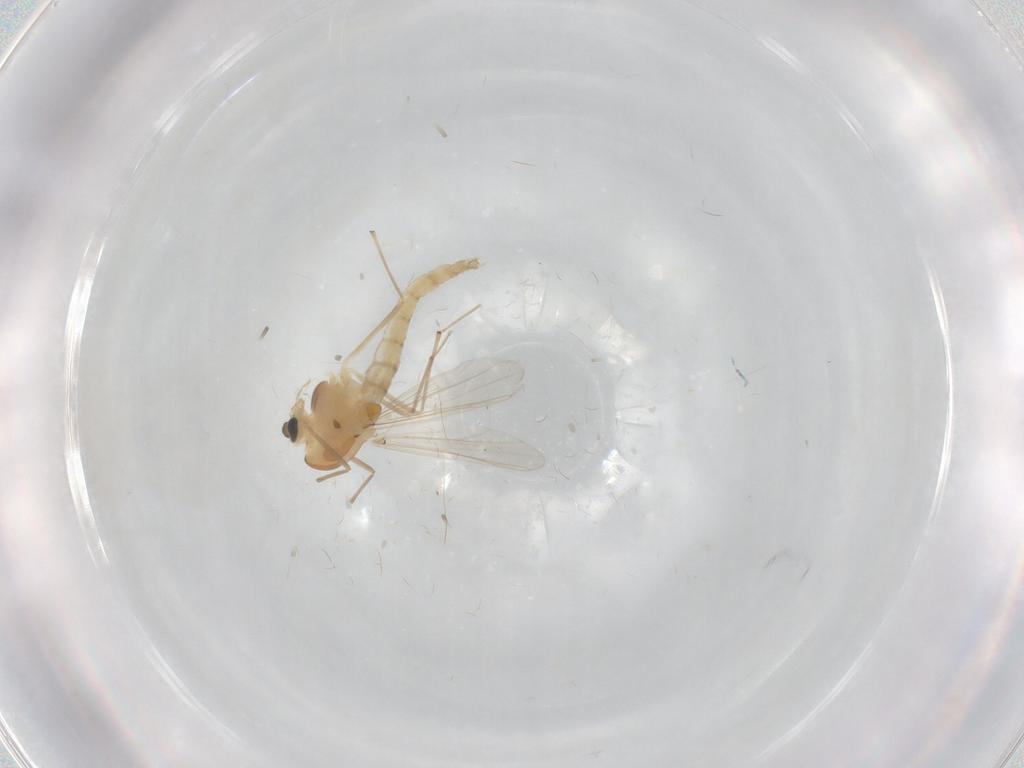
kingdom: Animalia
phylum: Arthropoda
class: Insecta
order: Diptera
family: Chironomidae
